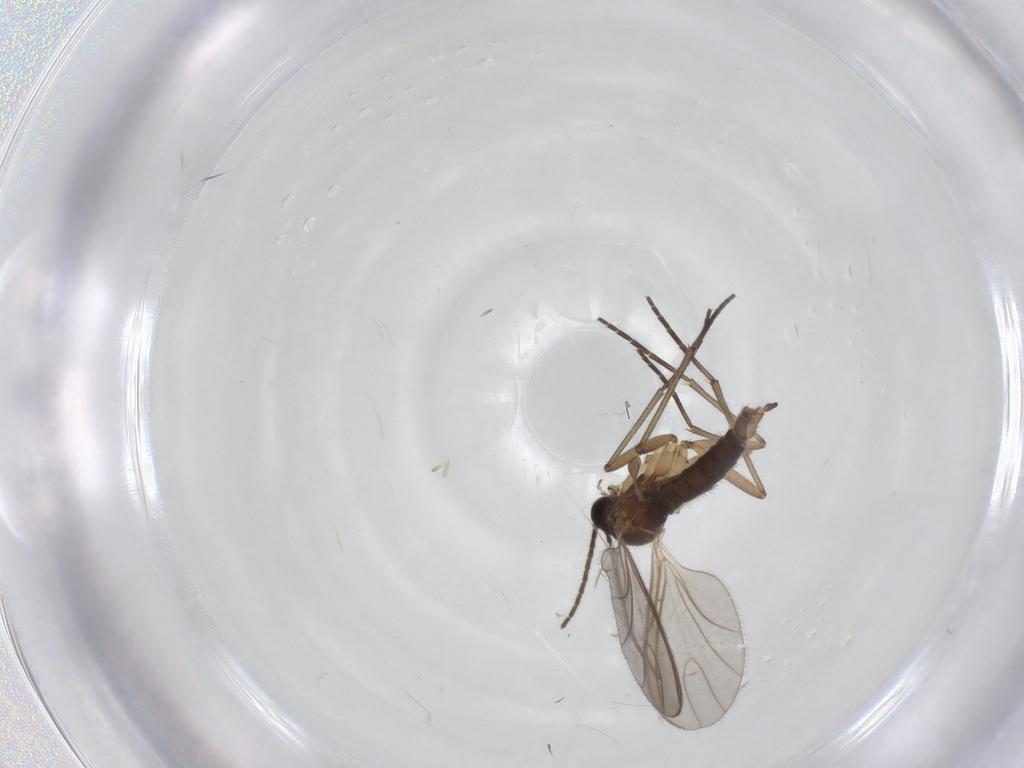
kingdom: Animalia
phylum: Arthropoda
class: Insecta
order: Diptera
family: Sciaridae
